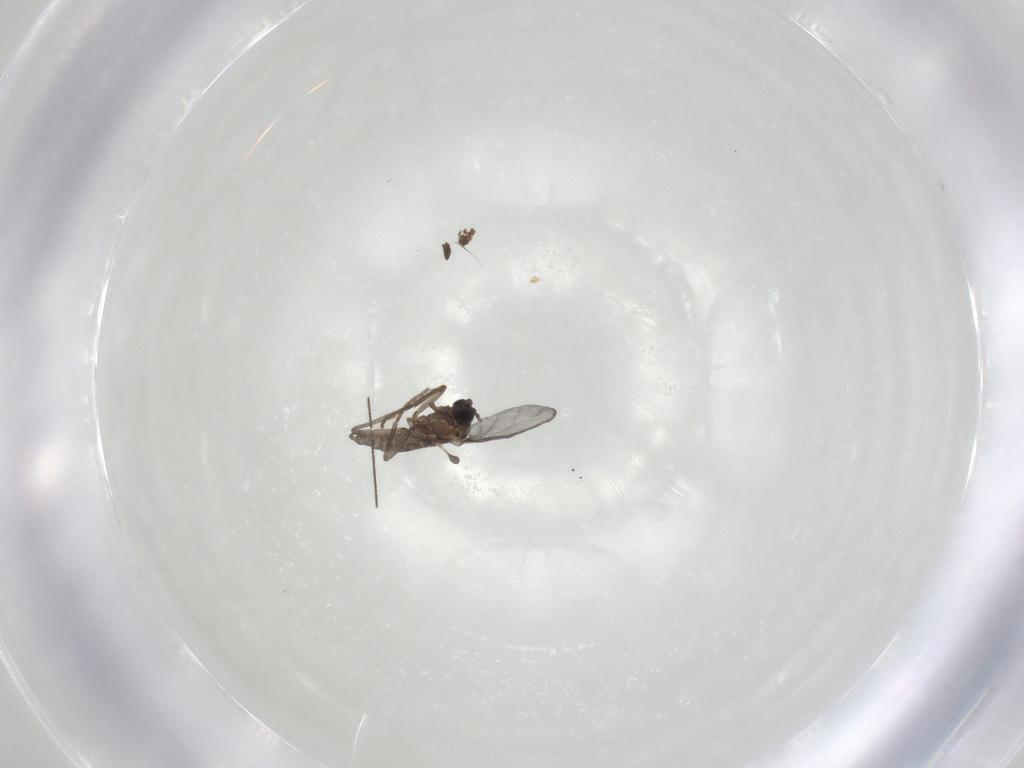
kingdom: Animalia
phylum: Arthropoda
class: Insecta
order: Diptera
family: Sciaridae
